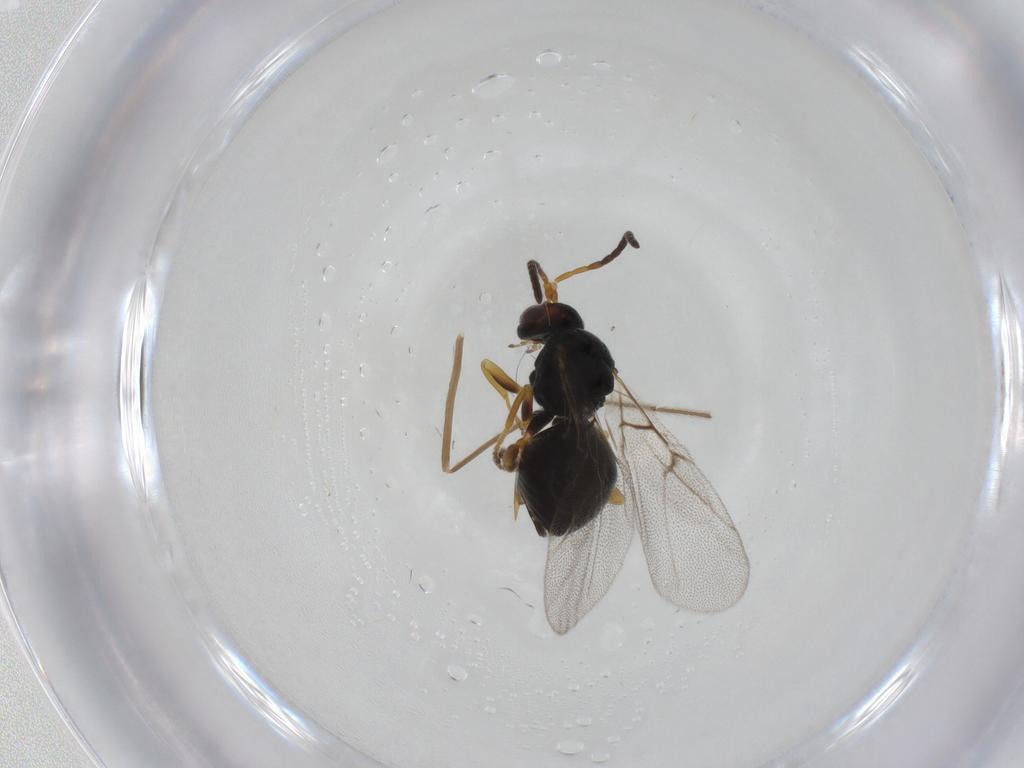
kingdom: Animalia
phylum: Arthropoda
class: Insecta
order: Hymenoptera
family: Cynipidae
